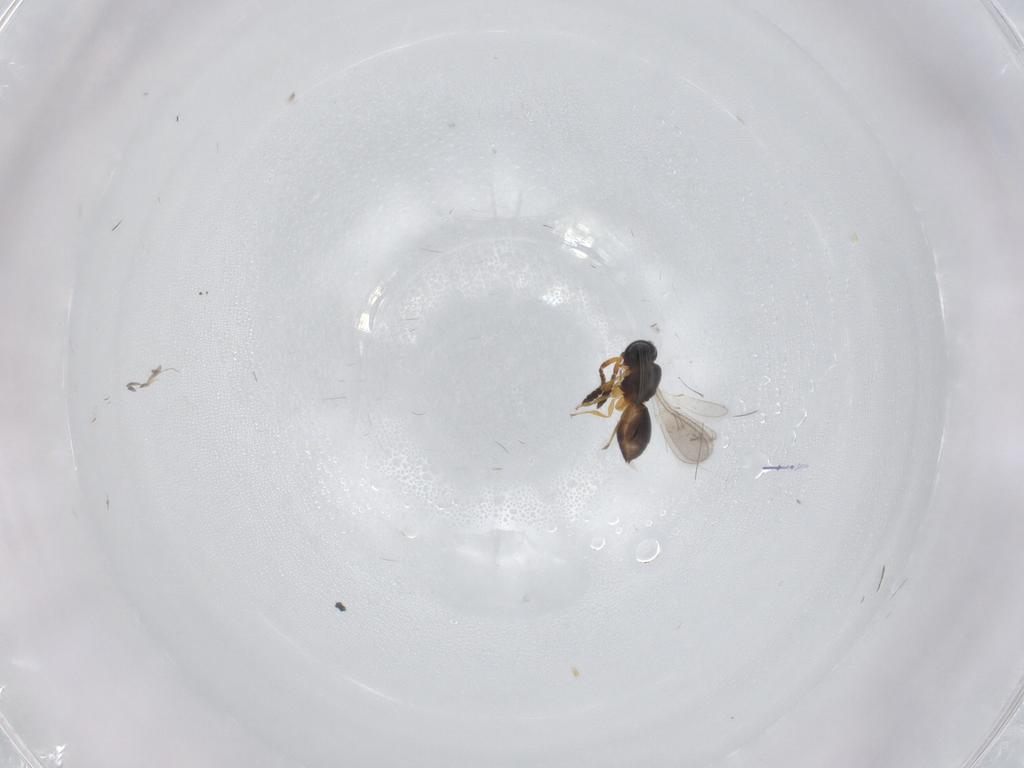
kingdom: Animalia
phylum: Arthropoda
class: Insecta
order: Hymenoptera
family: Scelionidae
